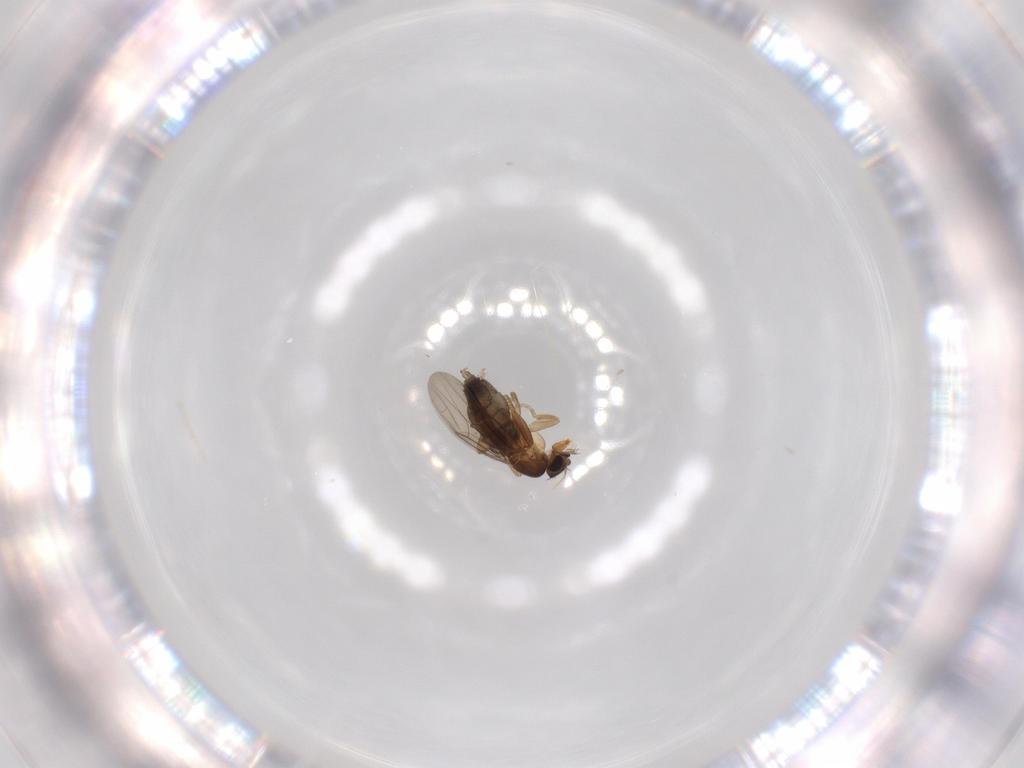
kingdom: Animalia
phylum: Arthropoda
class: Insecta
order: Diptera
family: Phoridae
